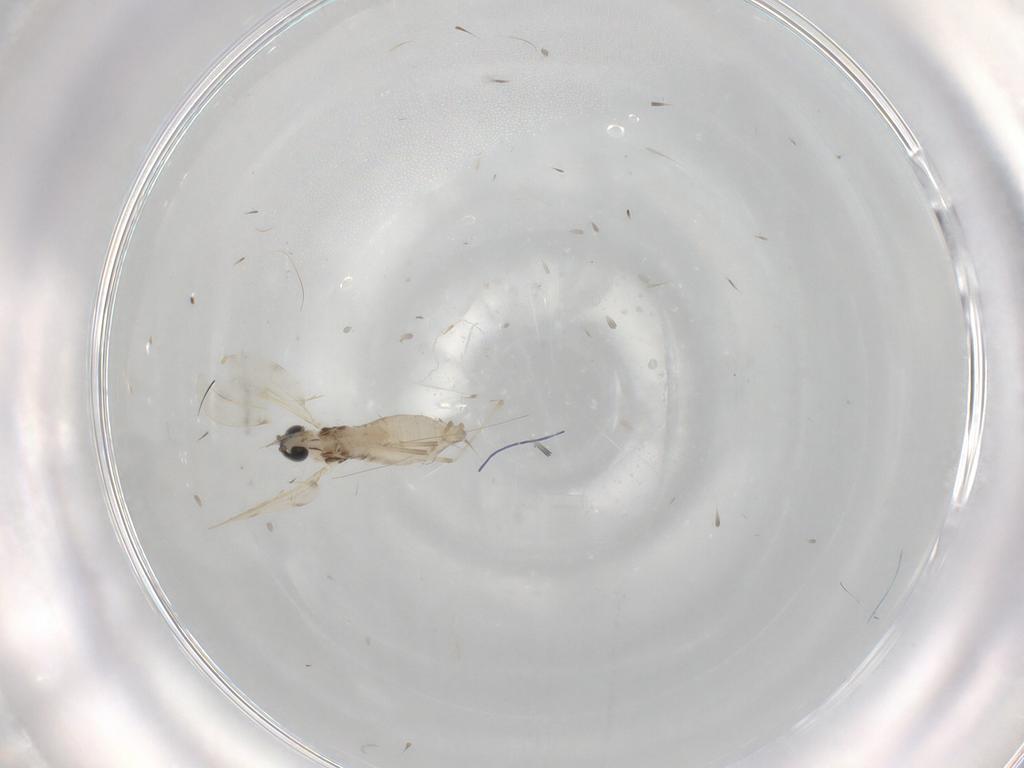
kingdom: Animalia
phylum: Arthropoda
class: Insecta
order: Diptera
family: Cecidomyiidae
